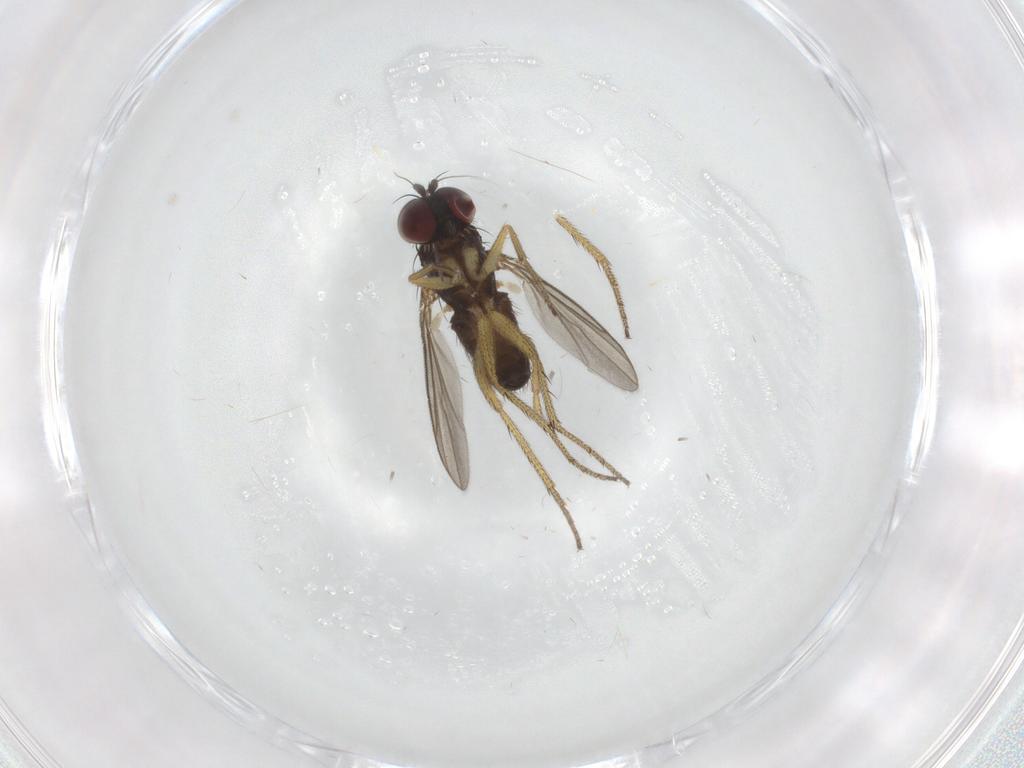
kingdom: Animalia
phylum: Arthropoda
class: Insecta
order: Diptera
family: Dolichopodidae
